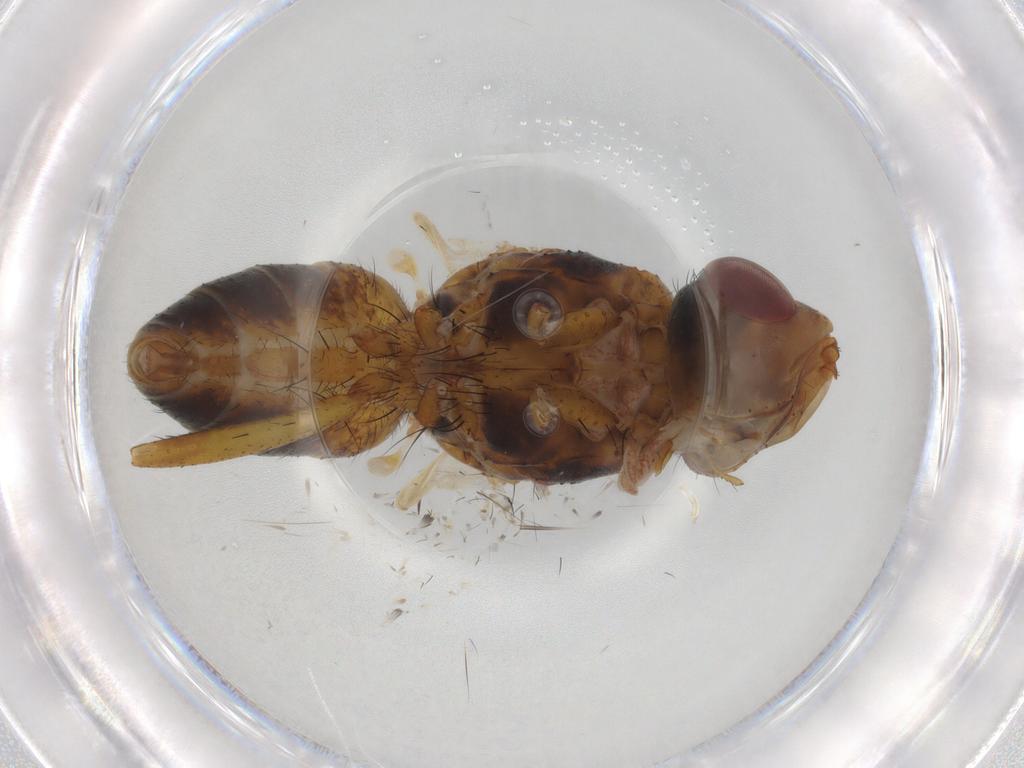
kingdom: Animalia
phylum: Arthropoda
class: Insecta
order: Diptera
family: Tachinidae
